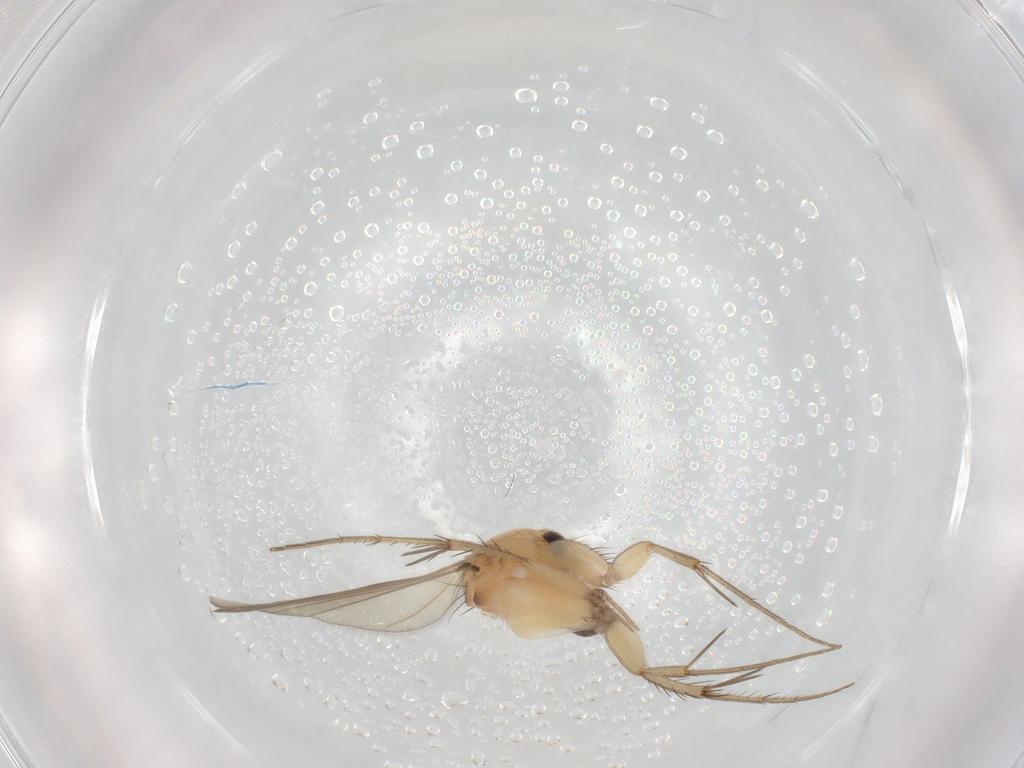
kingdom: Animalia
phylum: Arthropoda
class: Insecta
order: Diptera
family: Mycetophilidae
